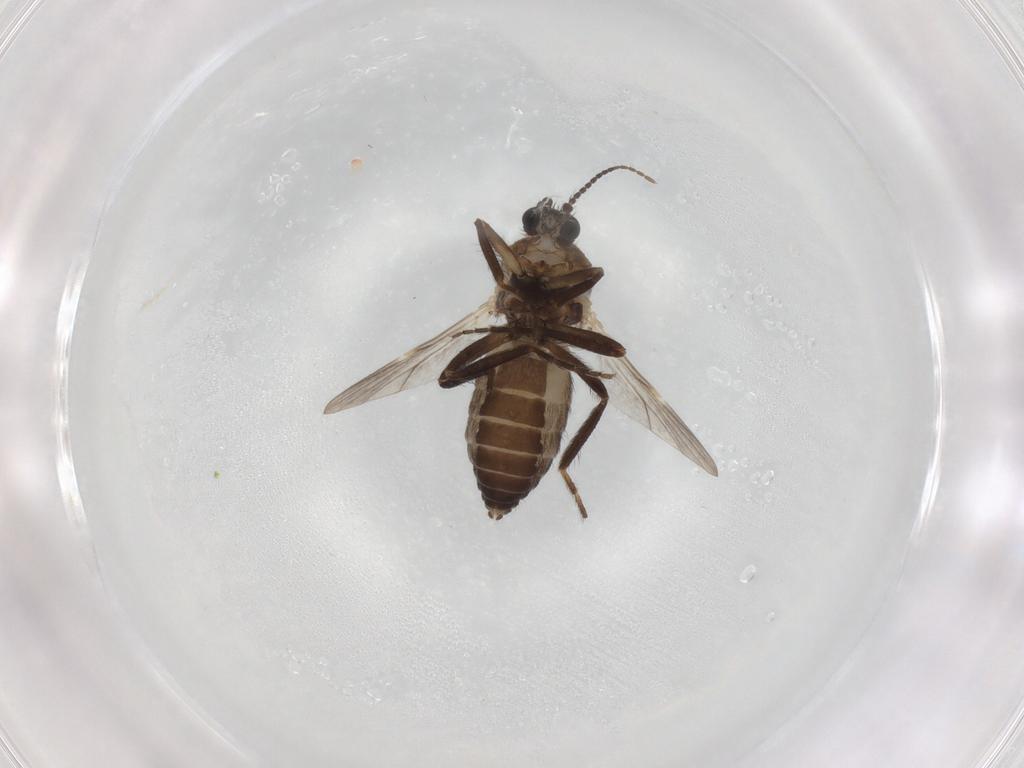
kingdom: Animalia
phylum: Arthropoda
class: Insecta
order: Diptera
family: Ceratopogonidae
